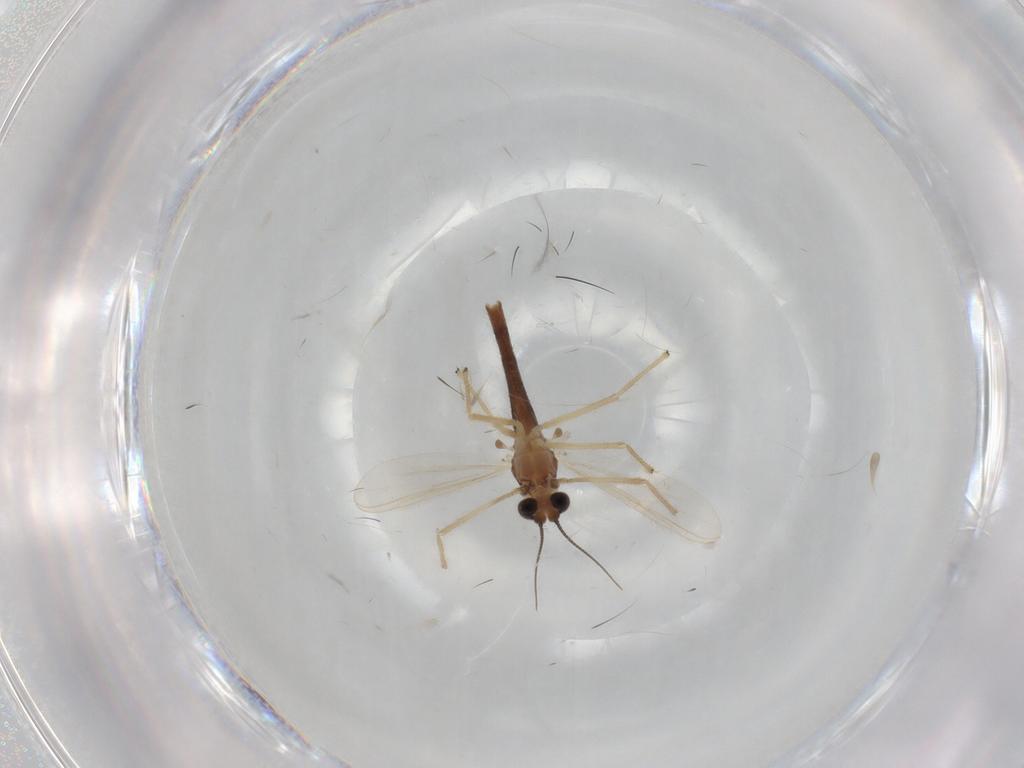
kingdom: Animalia
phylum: Arthropoda
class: Insecta
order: Diptera
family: Chironomidae
